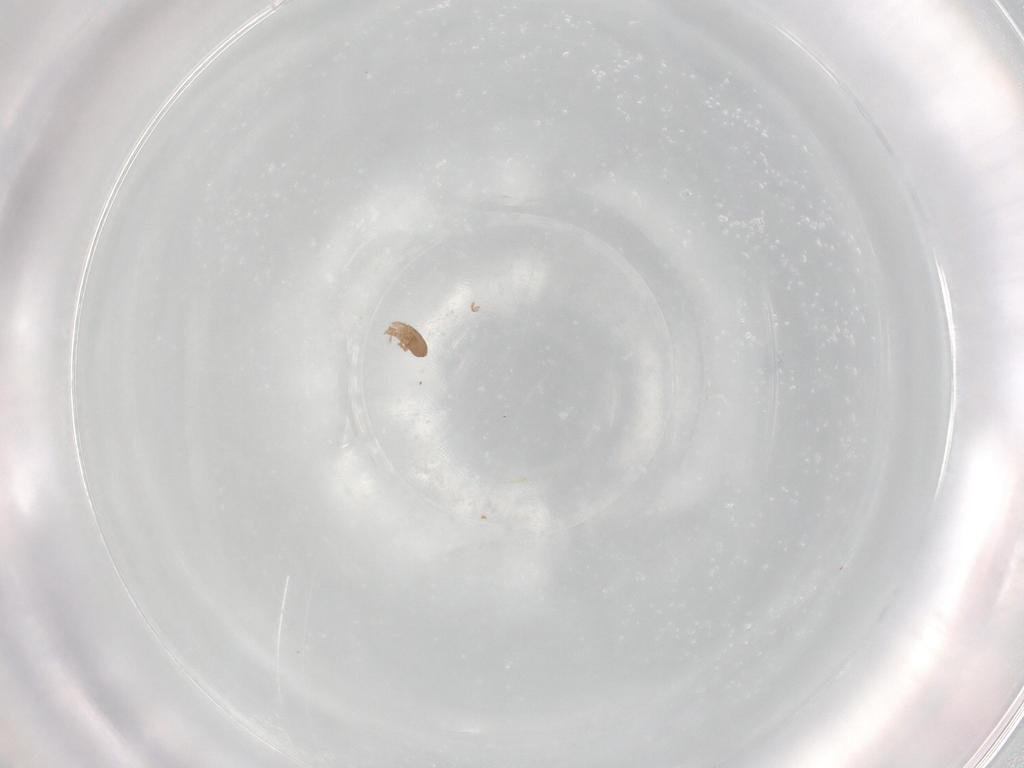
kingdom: Animalia
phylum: Arthropoda
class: Arachnida
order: Sarcoptiformes
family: Eremaeidae
